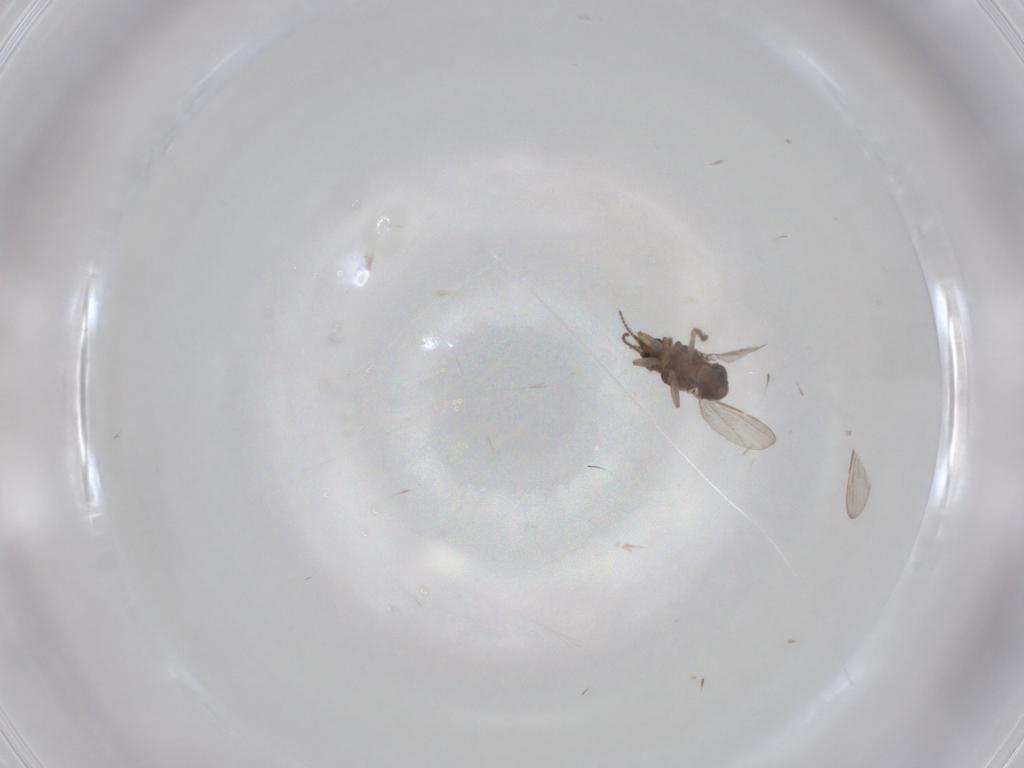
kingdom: Animalia
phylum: Arthropoda
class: Insecta
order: Diptera
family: Ceratopogonidae
